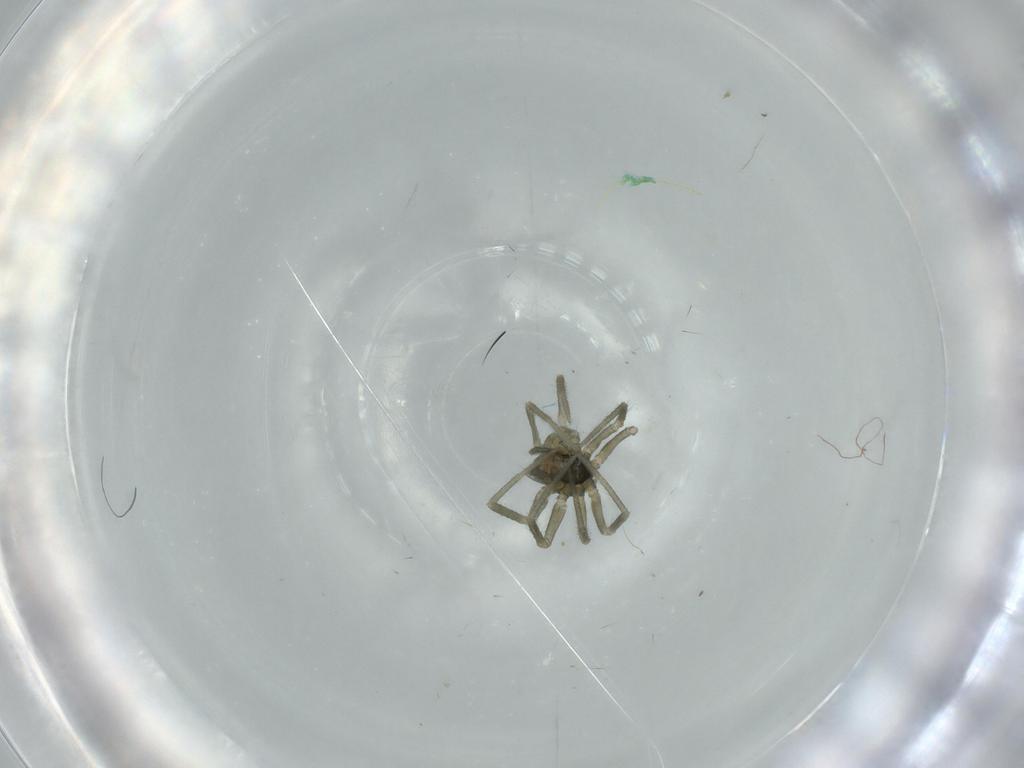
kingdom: Animalia
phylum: Arthropoda
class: Arachnida
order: Araneae
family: Linyphiidae
